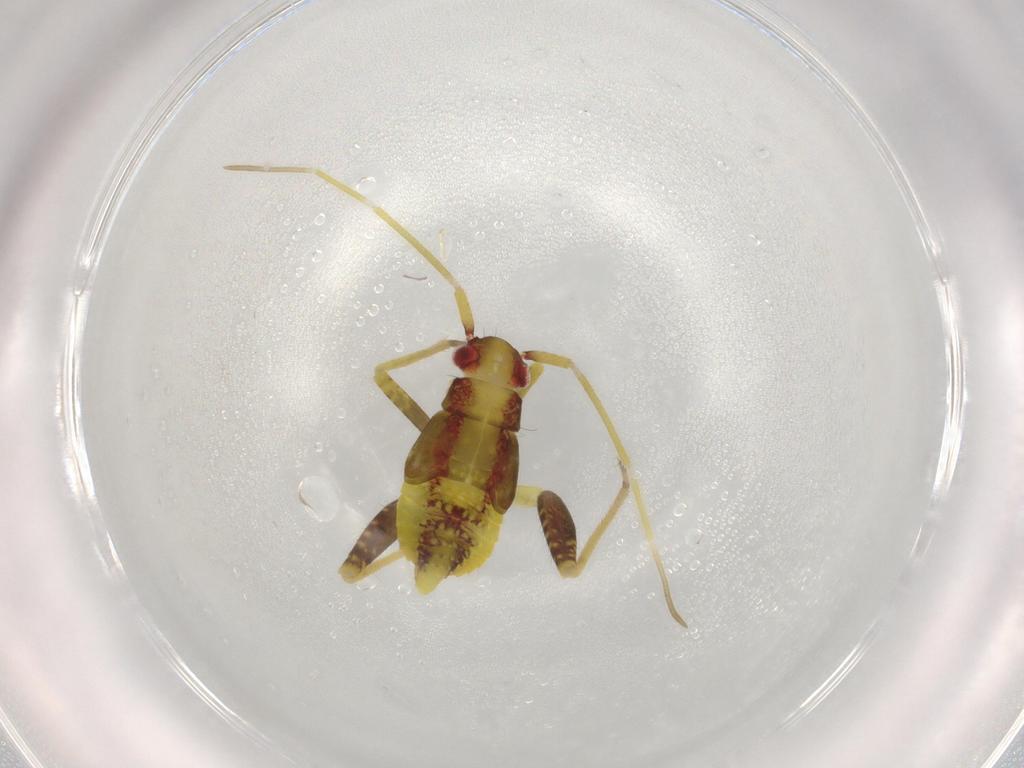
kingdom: Animalia
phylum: Arthropoda
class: Insecta
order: Hemiptera
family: Miridae
